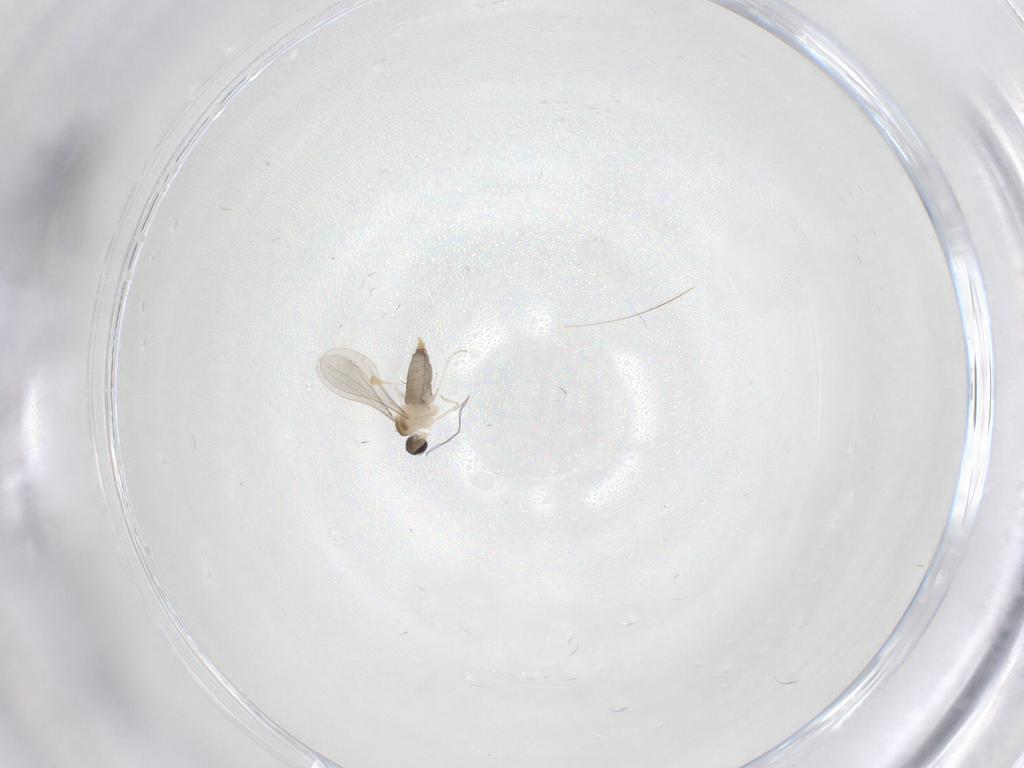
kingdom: Animalia
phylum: Arthropoda
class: Insecta
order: Diptera
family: Cecidomyiidae
